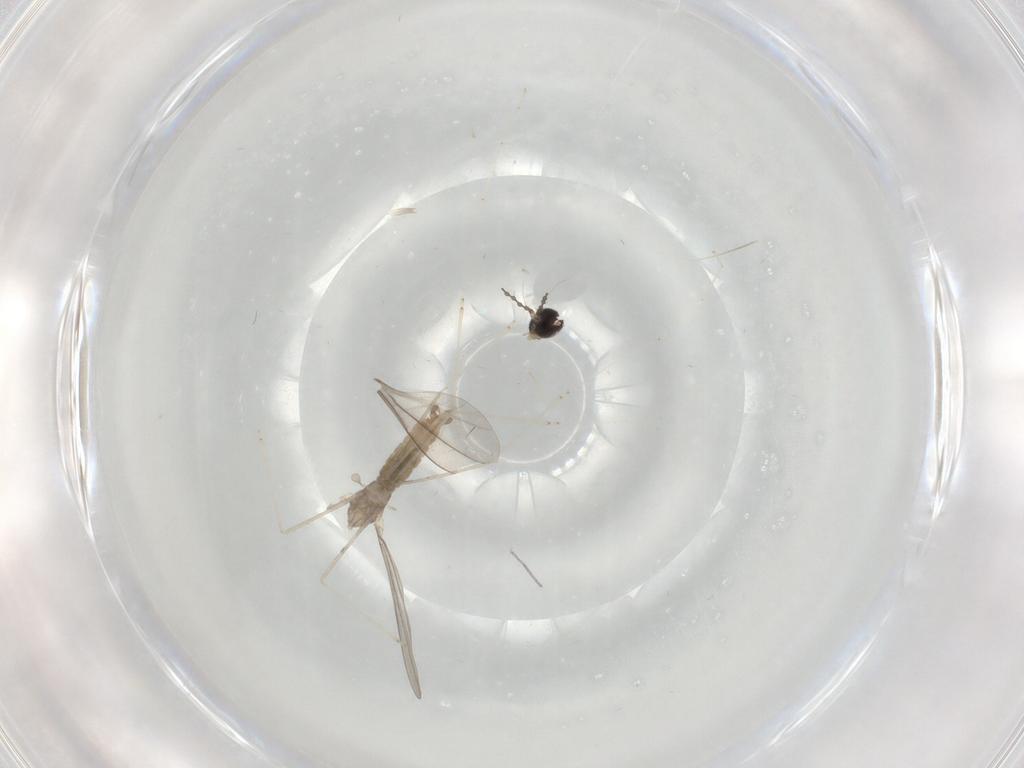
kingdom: Animalia
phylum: Arthropoda
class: Insecta
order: Diptera
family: Cecidomyiidae
